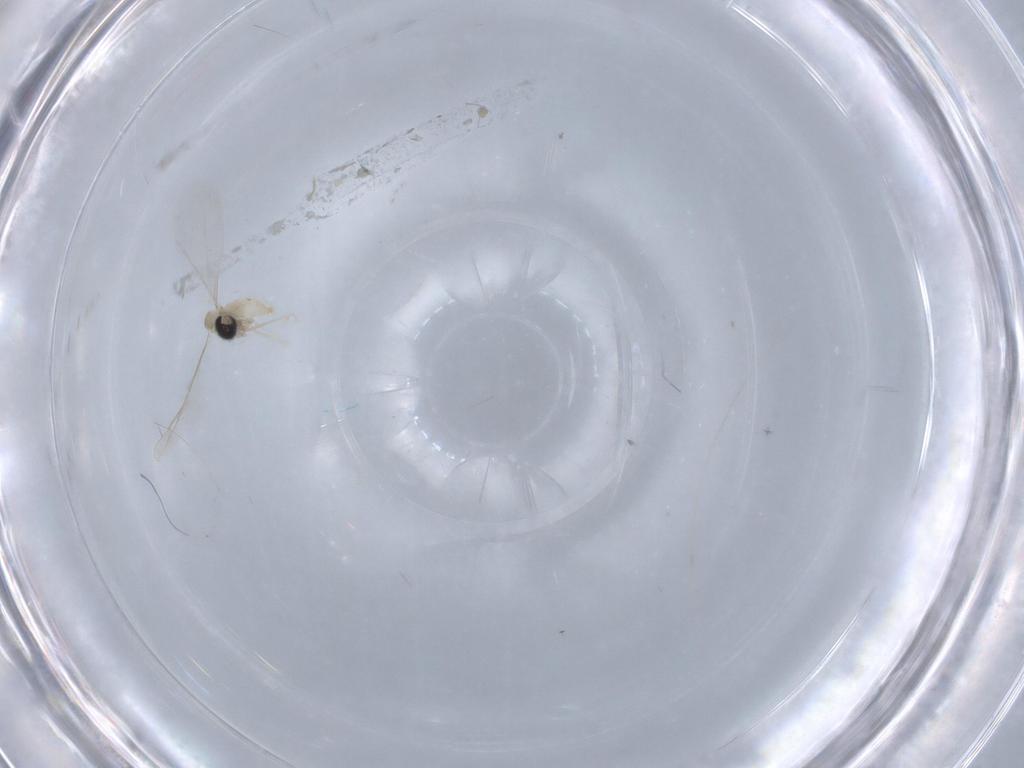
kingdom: Animalia
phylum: Arthropoda
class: Insecta
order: Diptera
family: Cecidomyiidae
